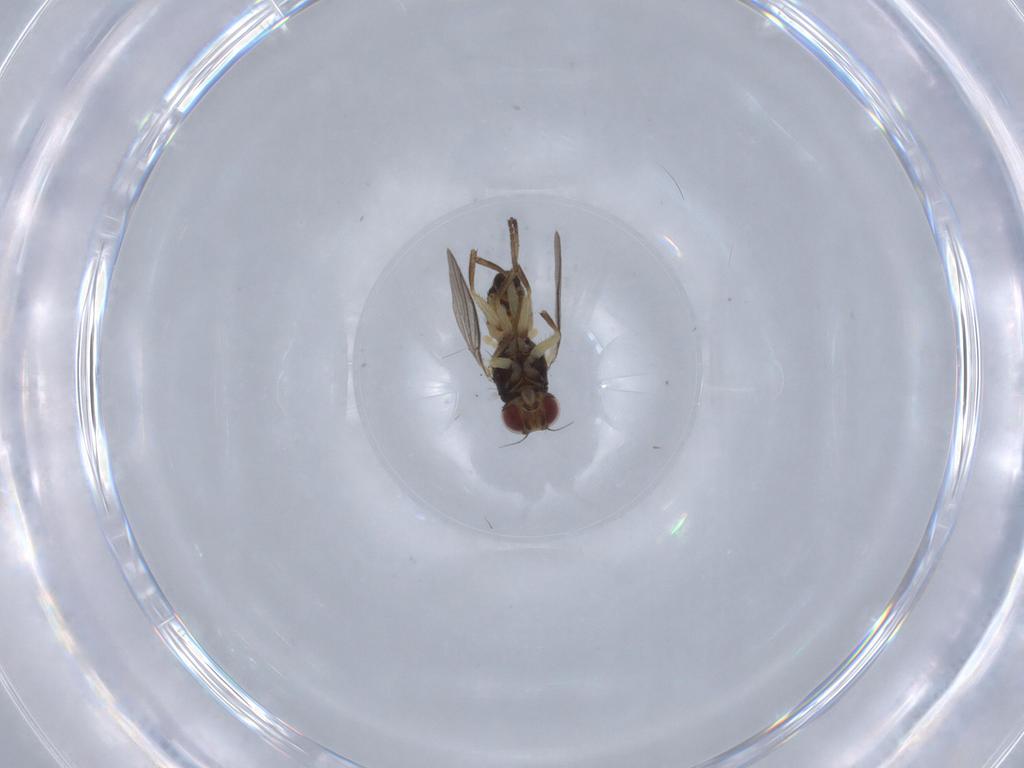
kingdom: Animalia
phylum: Arthropoda
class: Insecta
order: Diptera
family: Agromyzidae
